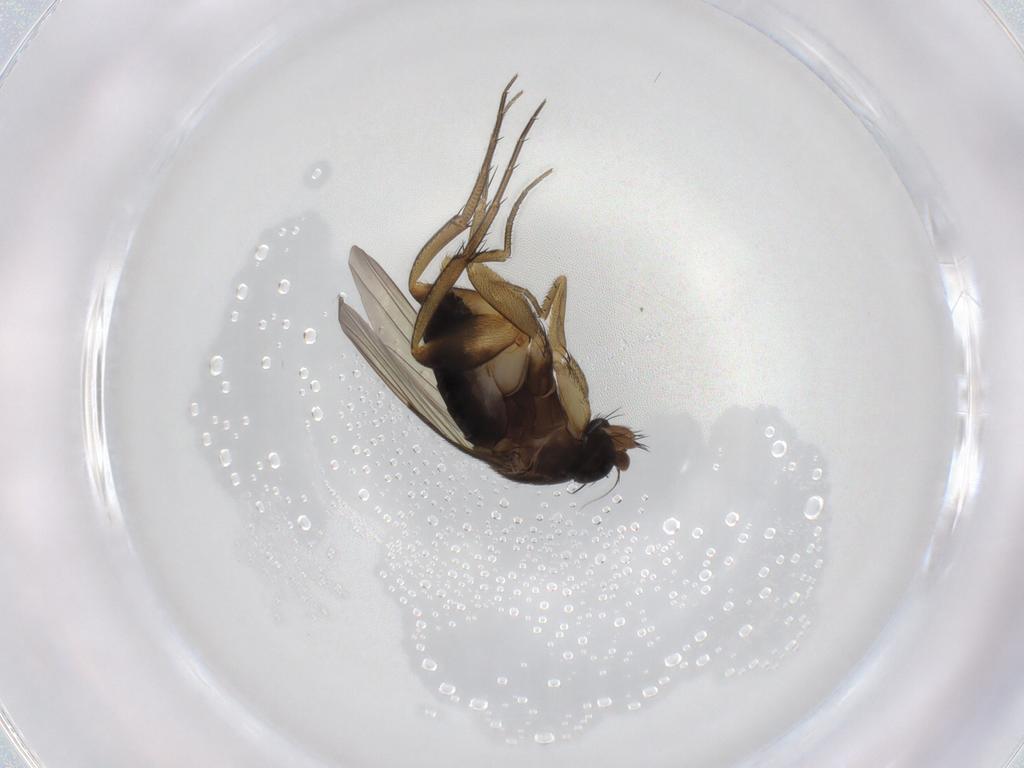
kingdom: Animalia
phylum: Arthropoda
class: Insecta
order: Diptera
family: Phoridae
